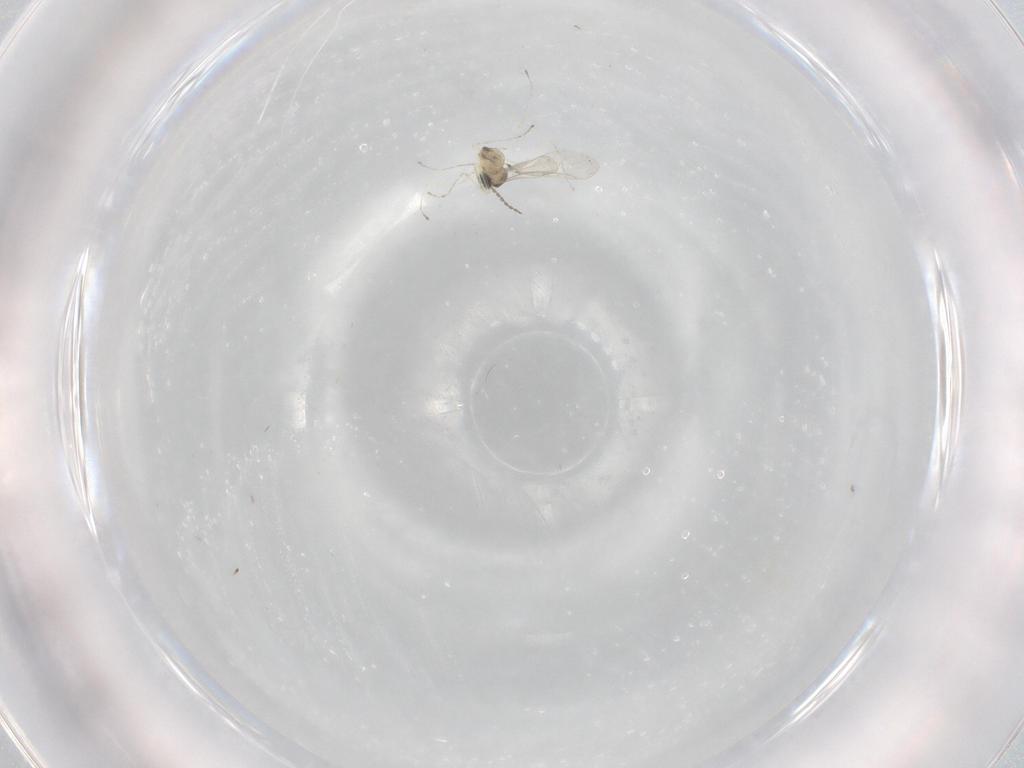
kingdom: Animalia
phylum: Arthropoda
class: Insecta
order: Diptera
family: Cecidomyiidae
